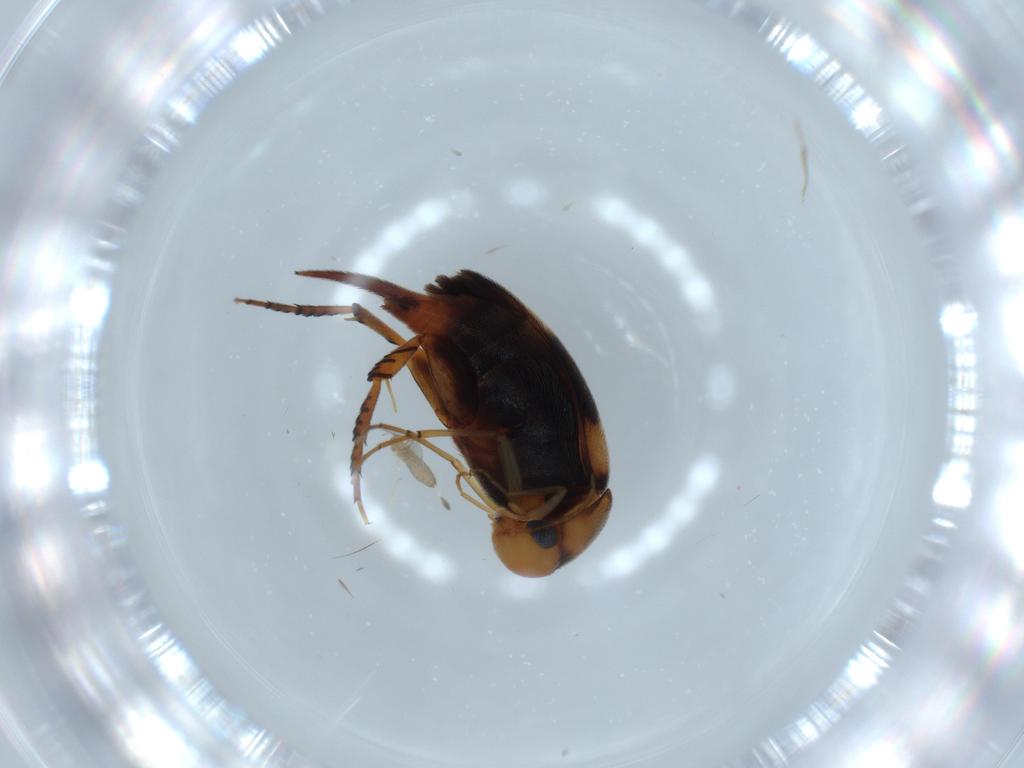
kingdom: Animalia
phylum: Arthropoda
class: Insecta
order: Coleoptera
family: Mordellidae
